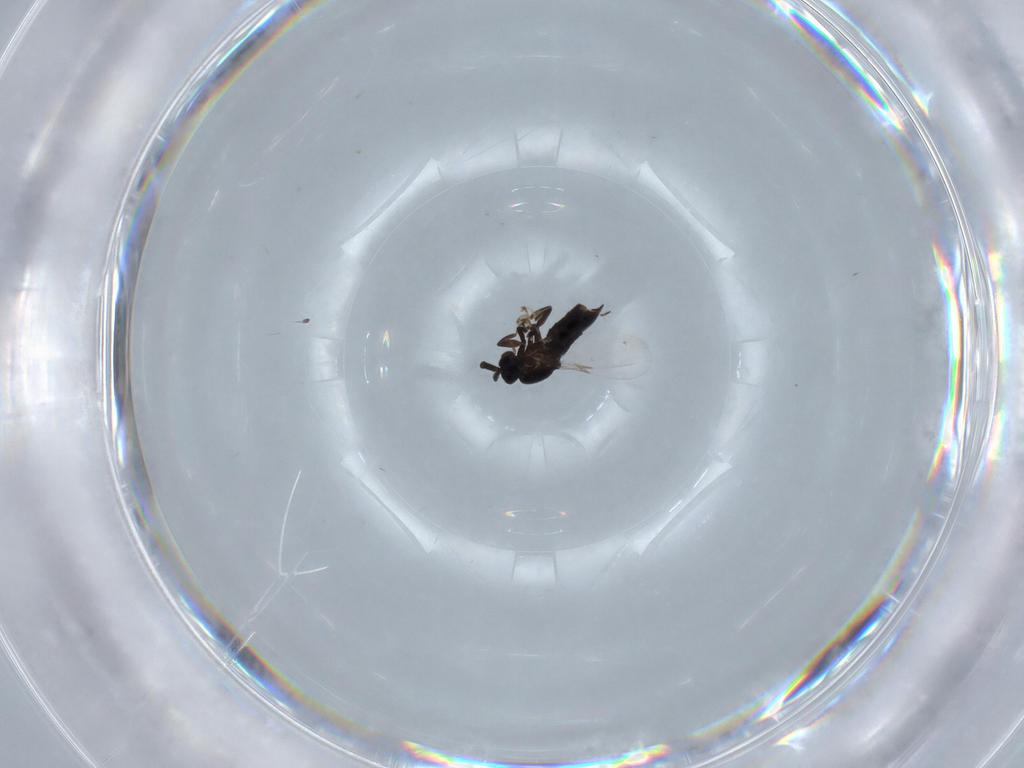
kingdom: Animalia
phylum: Arthropoda
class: Insecta
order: Diptera
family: Scatopsidae
